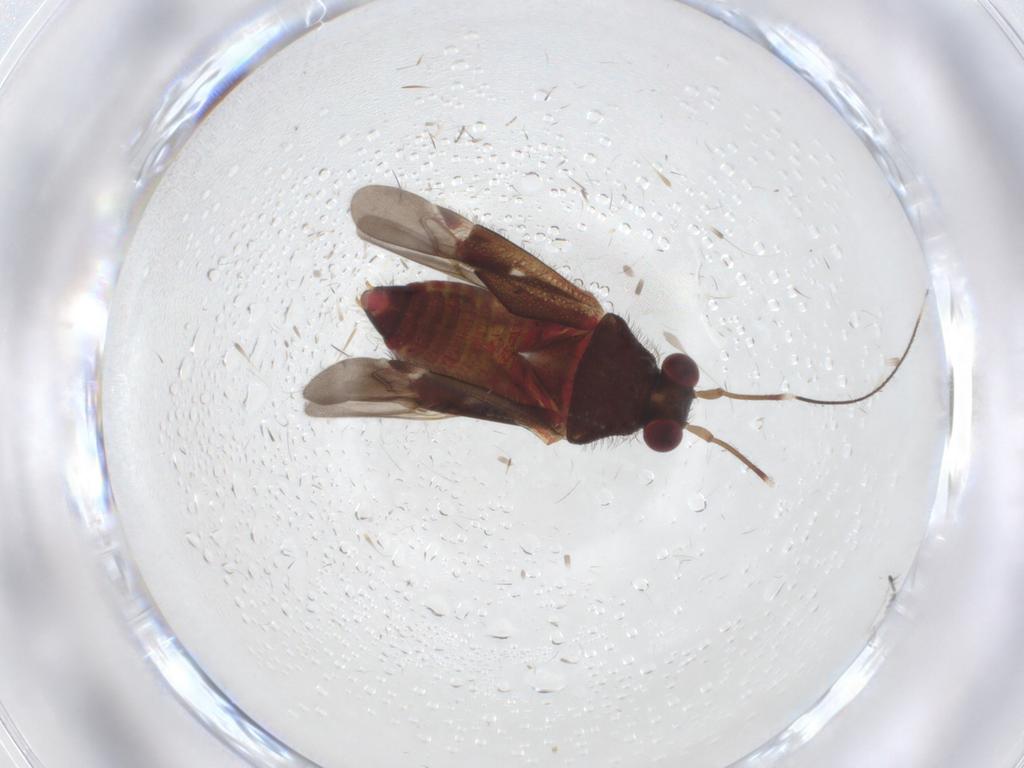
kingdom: Animalia
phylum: Arthropoda
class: Insecta
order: Hemiptera
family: Miridae
